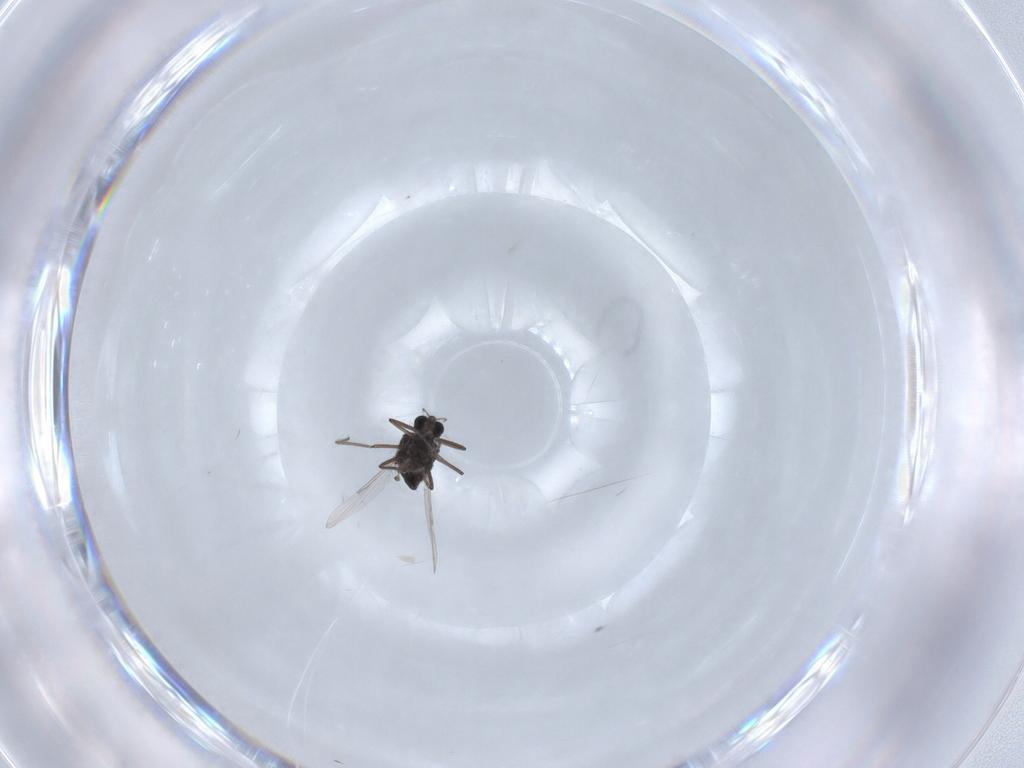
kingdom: Animalia
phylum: Arthropoda
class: Insecta
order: Diptera
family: Ceratopogonidae
